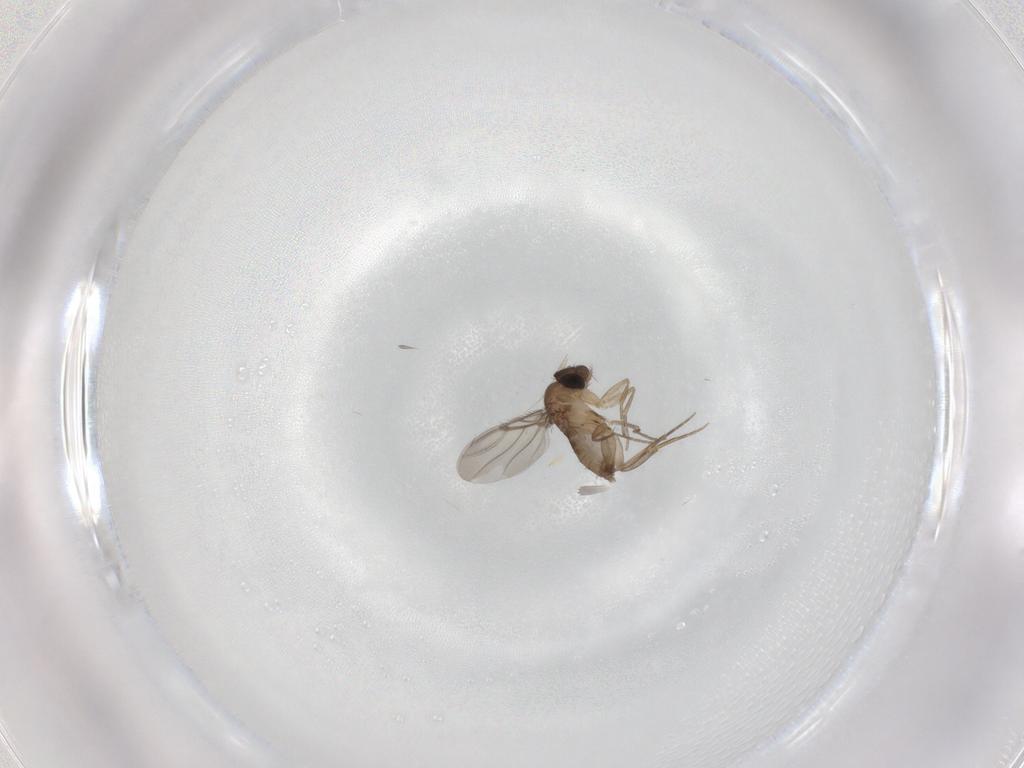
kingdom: Animalia
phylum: Arthropoda
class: Insecta
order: Diptera
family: Phoridae
